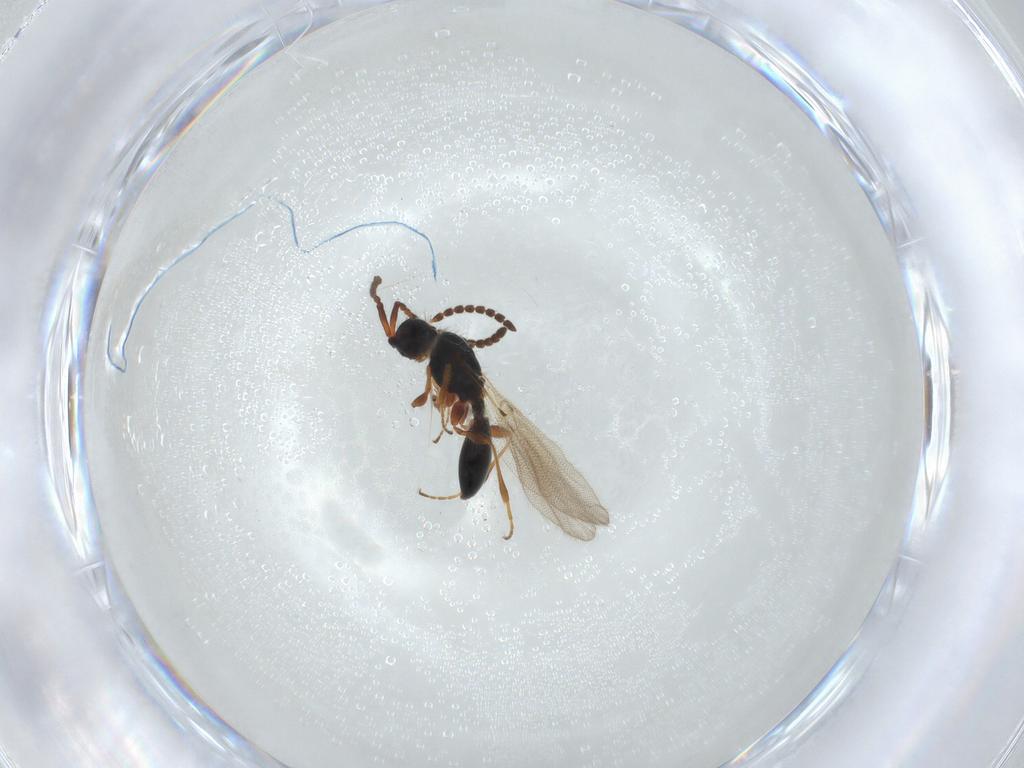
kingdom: Animalia
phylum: Arthropoda
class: Insecta
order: Hymenoptera
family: Diapriidae
